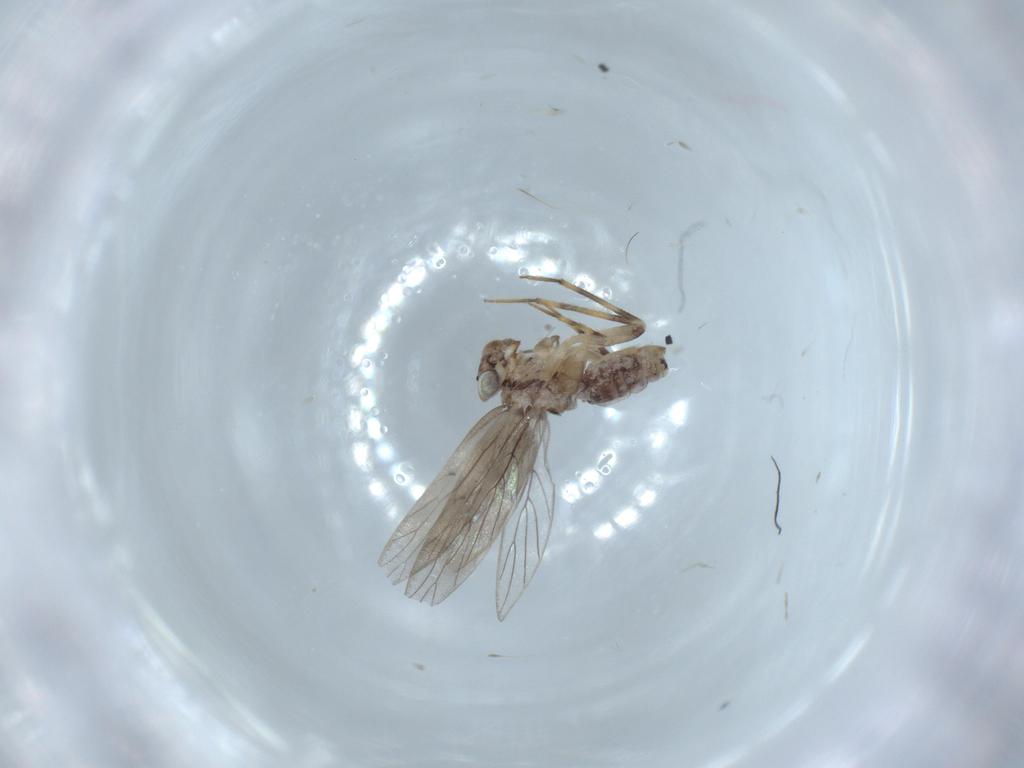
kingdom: Animalia
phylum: Arthropoda
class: Insecta
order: Psocodea
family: Lepidopsocidae
